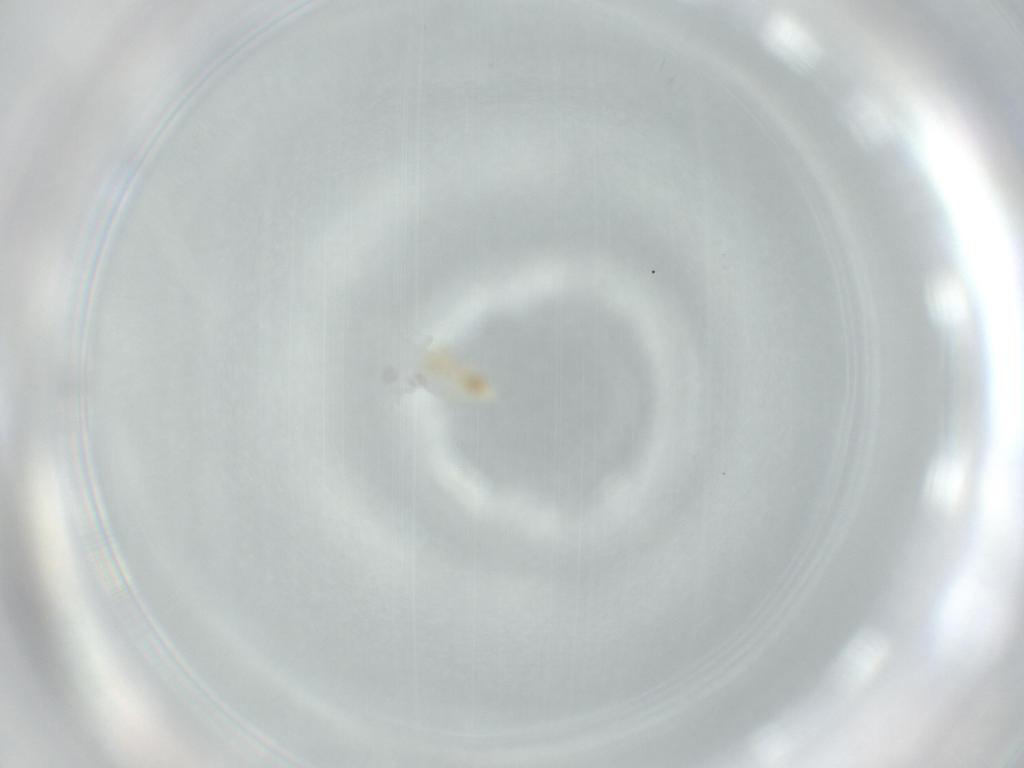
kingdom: Animalia
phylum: Arthropoda
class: Insecta
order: Psocodea
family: Caeciliusidae
